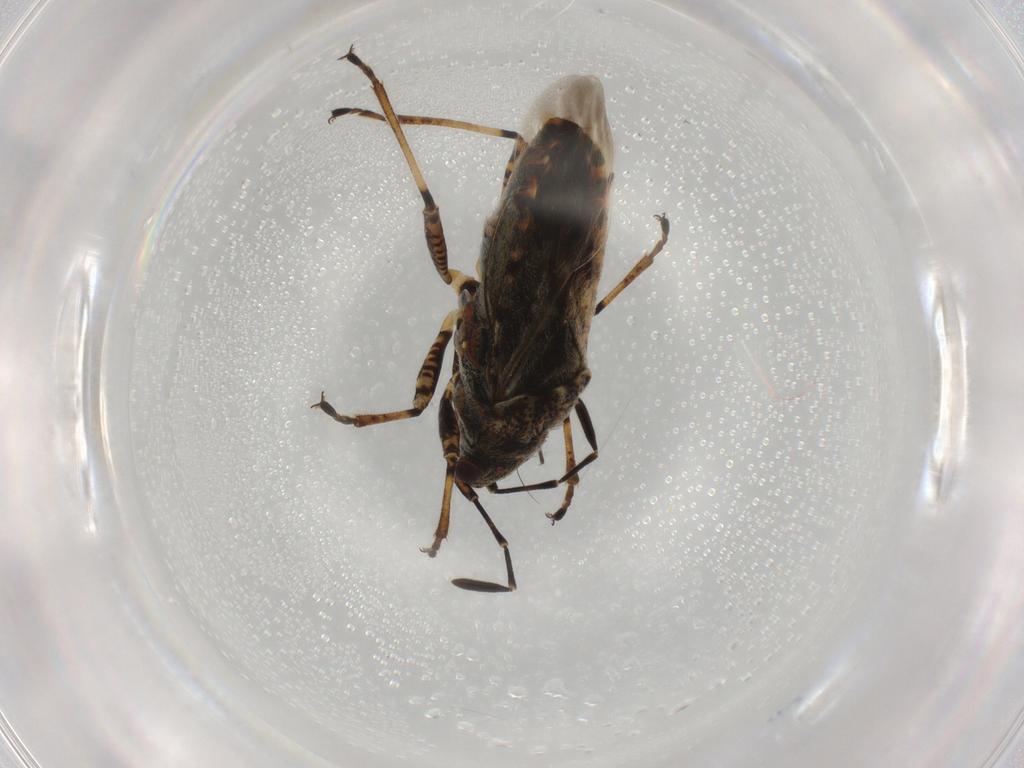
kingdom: Animalia
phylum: Arthropoda
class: Insecta
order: Hemiptera
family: Lygaeidae
